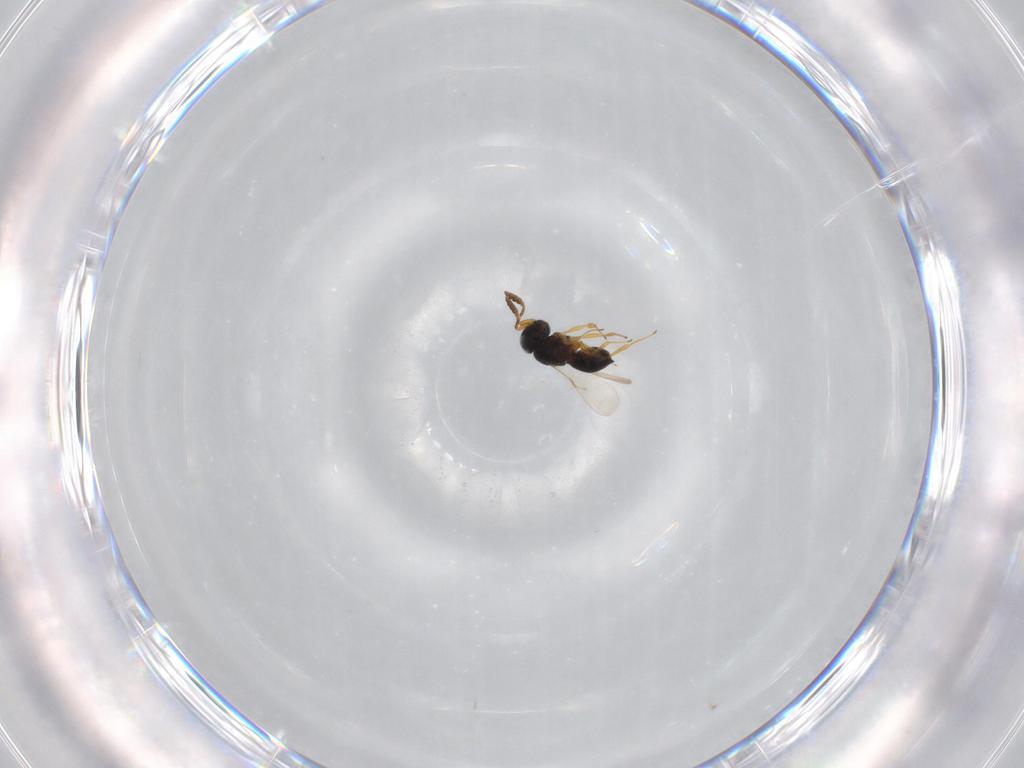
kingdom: Animalia
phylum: Arthropoda
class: Insecta
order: Hymenoptera
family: Scelionidae
